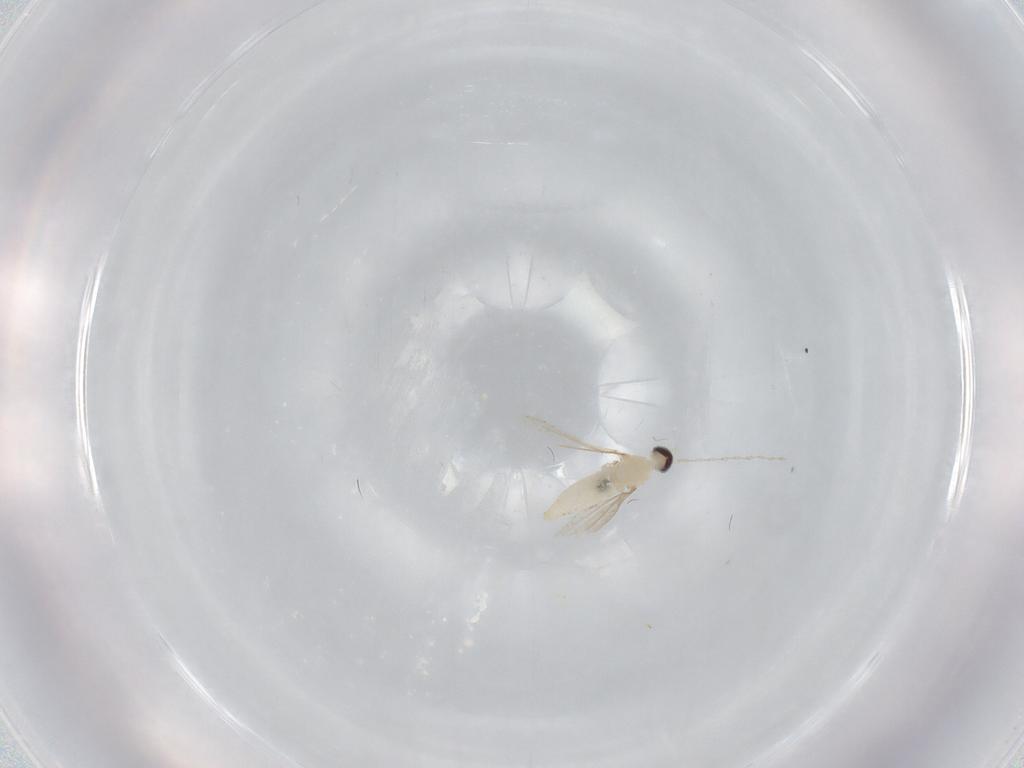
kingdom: Animalia
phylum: Arthropoda
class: Insecta
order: Diptera
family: Cecidomyiidae
